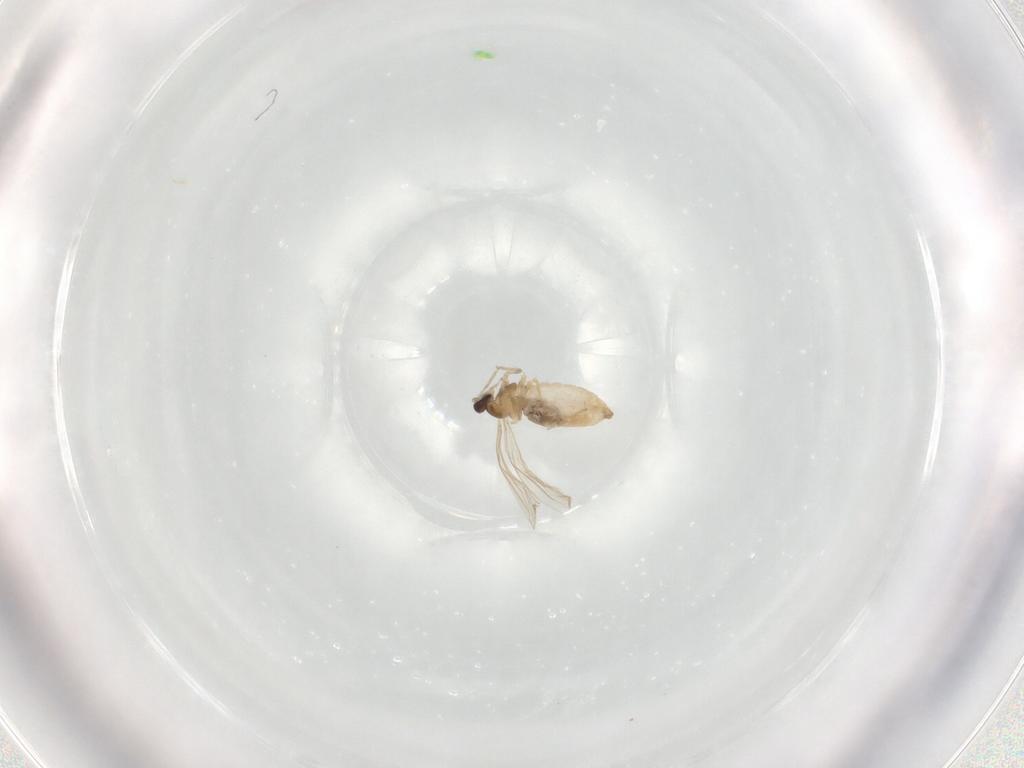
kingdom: Animalia
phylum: Arthropoda
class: Insecta
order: Diptera
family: Cecidomyiidae
